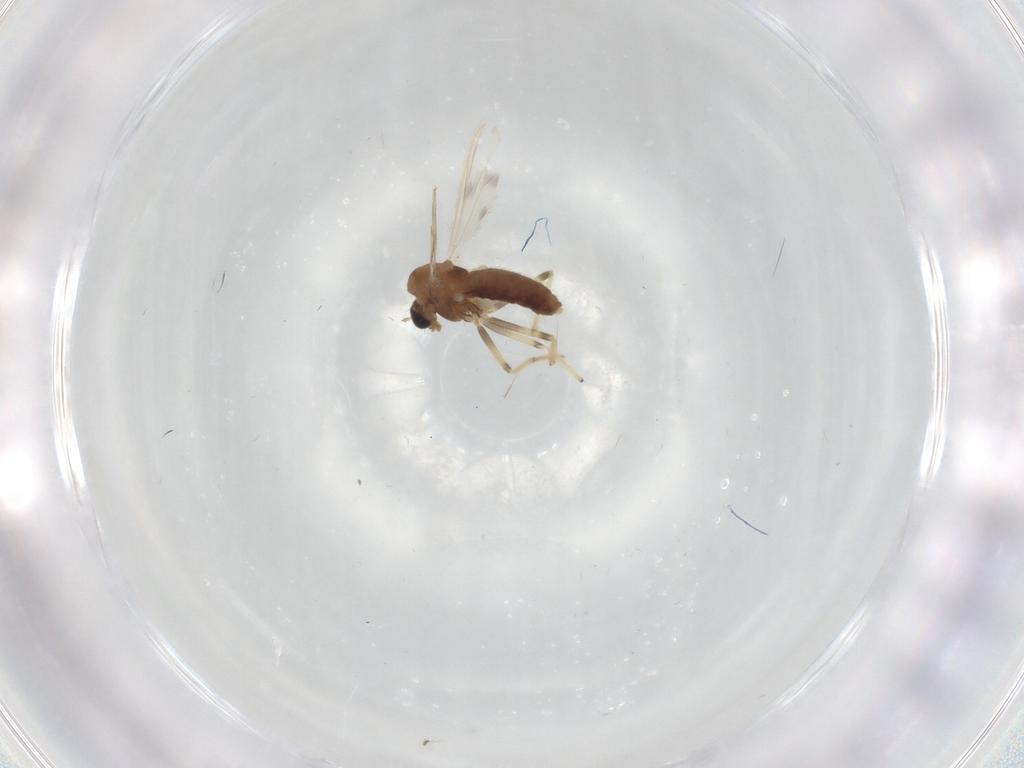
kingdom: Animalia
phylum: Arthropoda
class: Insecta
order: Diptera
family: Chironomidae
